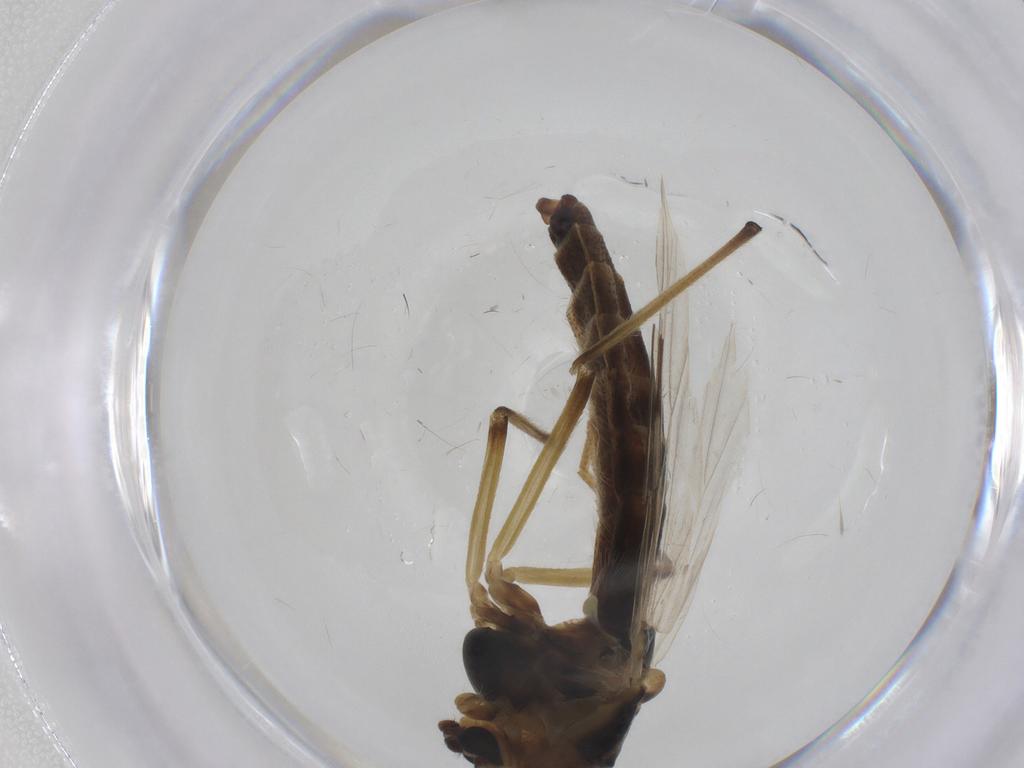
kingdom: Animalia
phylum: Arthropoda
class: Insecta
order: Diptera
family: Chironomidae
